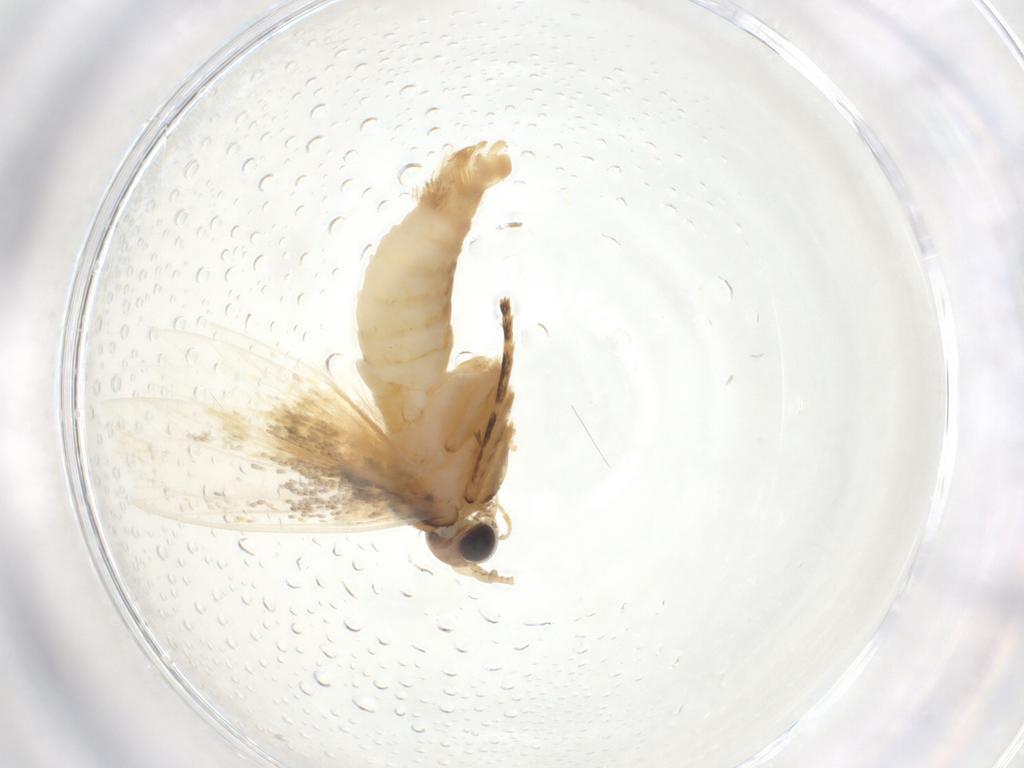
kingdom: Animalia
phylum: Arthropoda
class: Insecta
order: Lepidoptera
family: Tineidae
